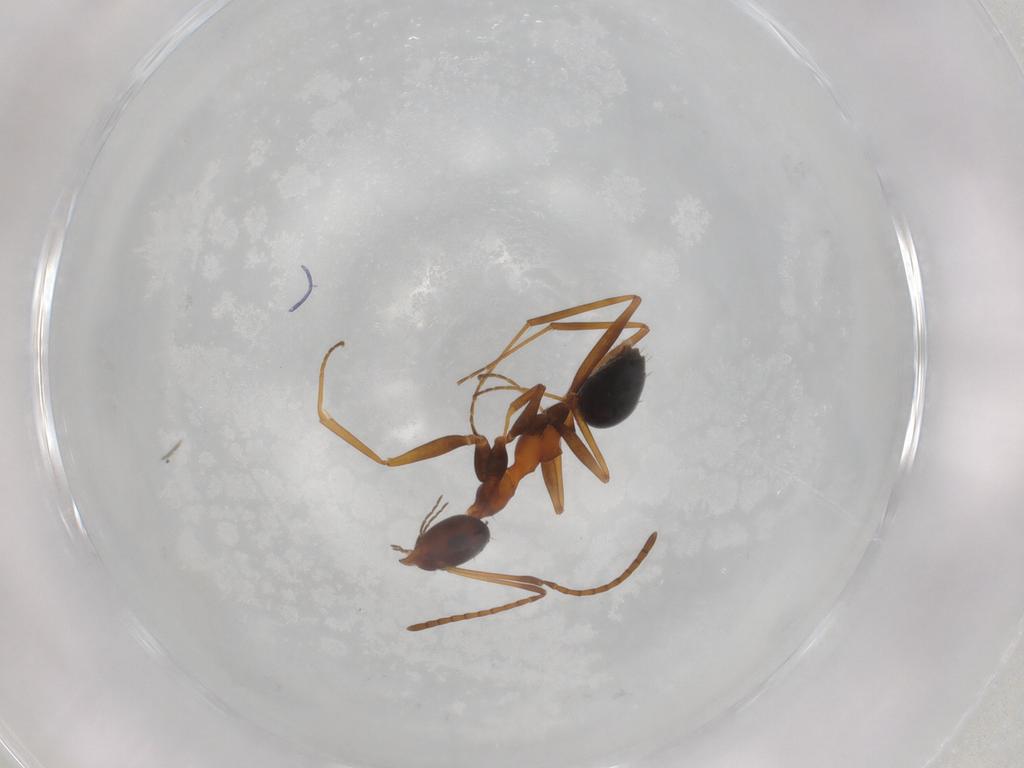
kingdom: Animalia
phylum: Arthropoda
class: Insecta
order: Hymenoptera
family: Formicidae
